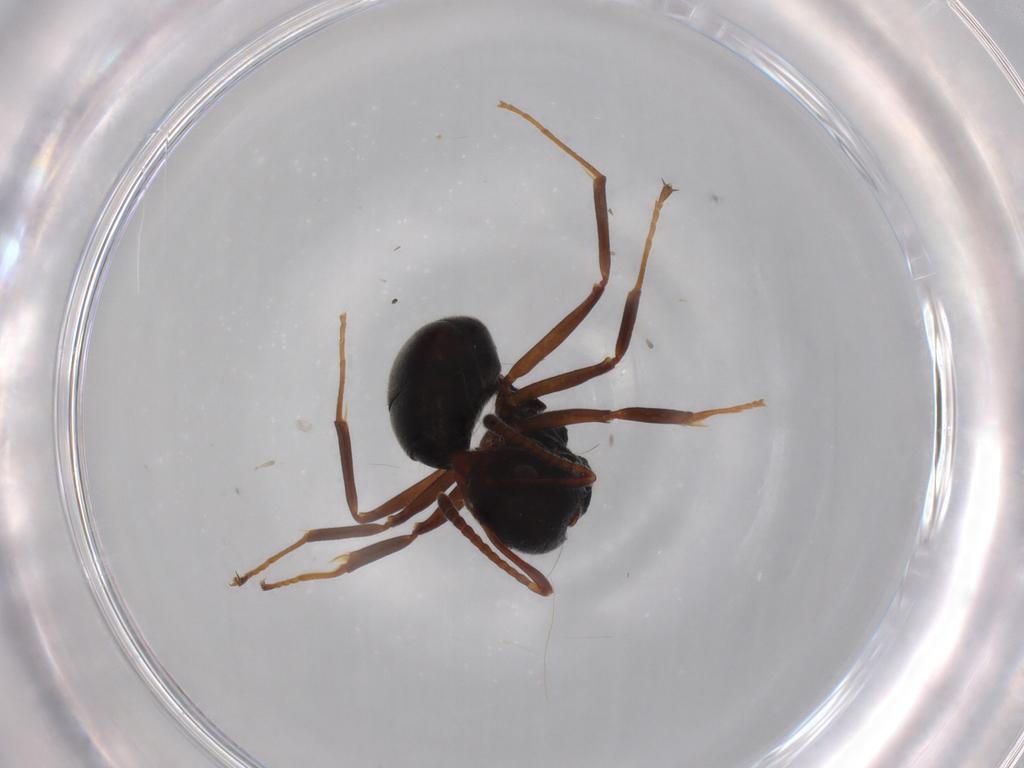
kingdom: Animalia
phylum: Arthropoda
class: Insecta
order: Hymenoptera
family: Formicidae
